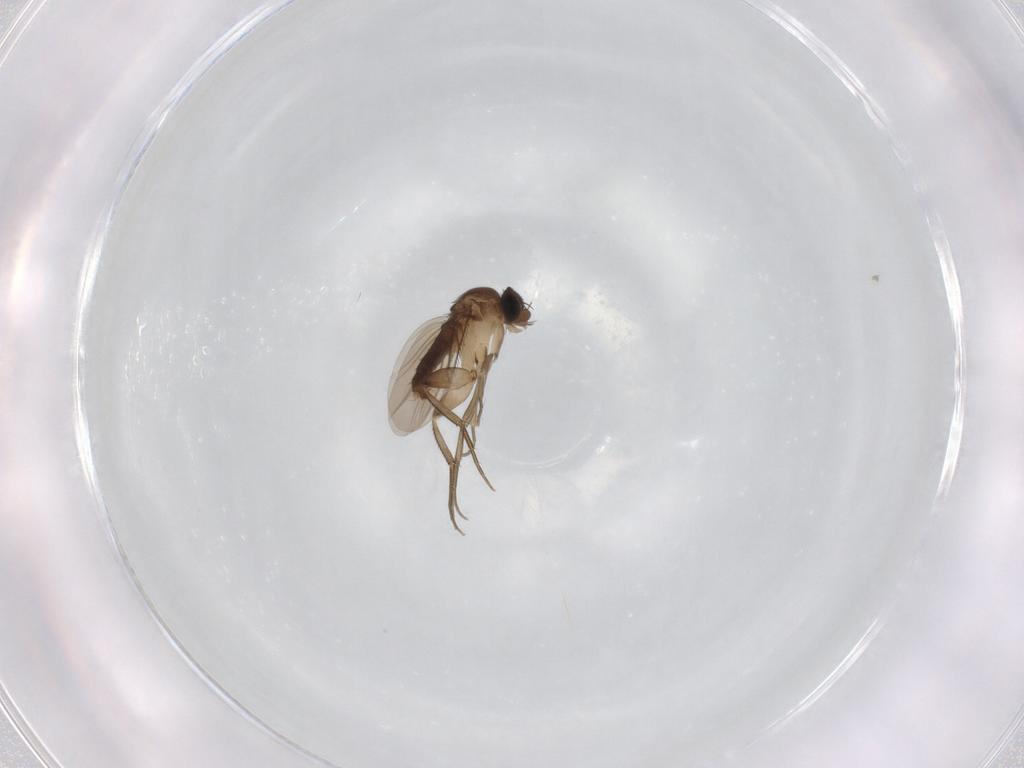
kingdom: Animalia
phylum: Arthropoda
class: Insecta
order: Diptera
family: Phoridae
